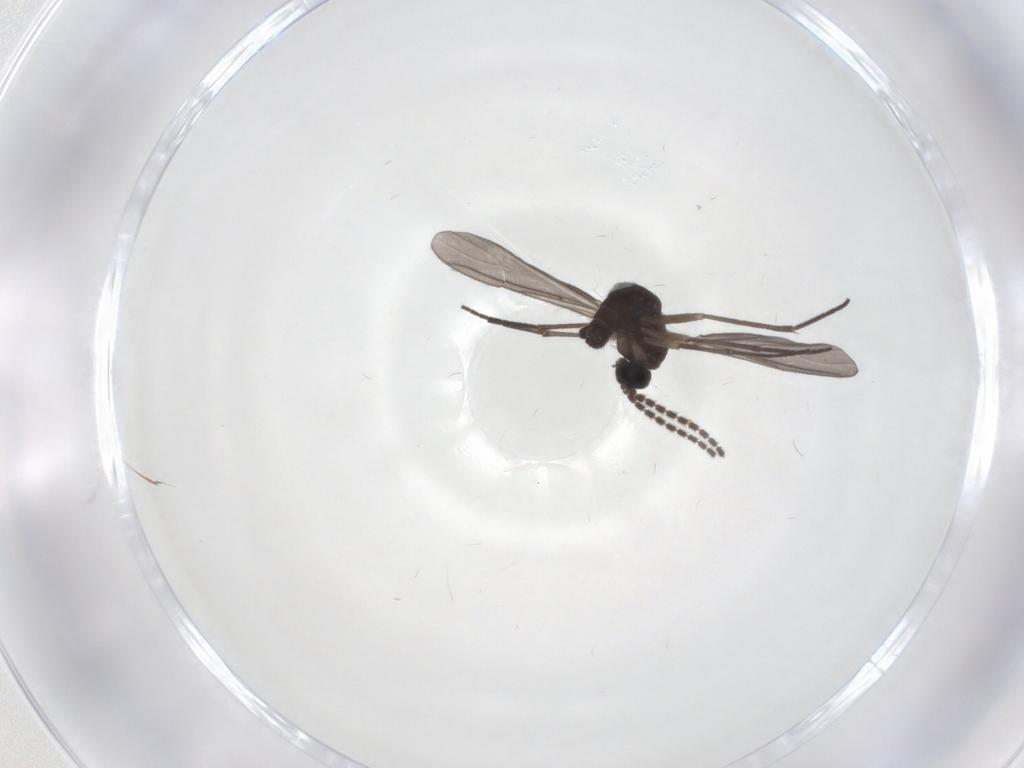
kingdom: Animalia
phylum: Arthropoda
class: Insecta
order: Diptera
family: Sciaridae
